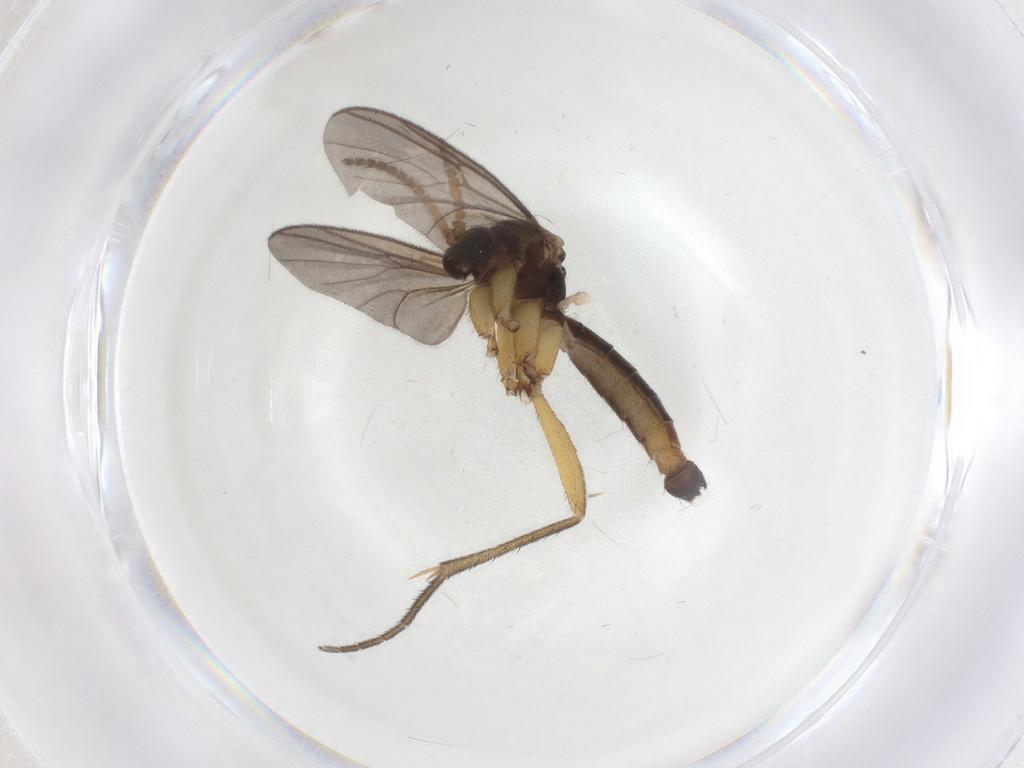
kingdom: Animalia
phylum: Arthropoda
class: Insecta
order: Diptera
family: Mycetophilidae
